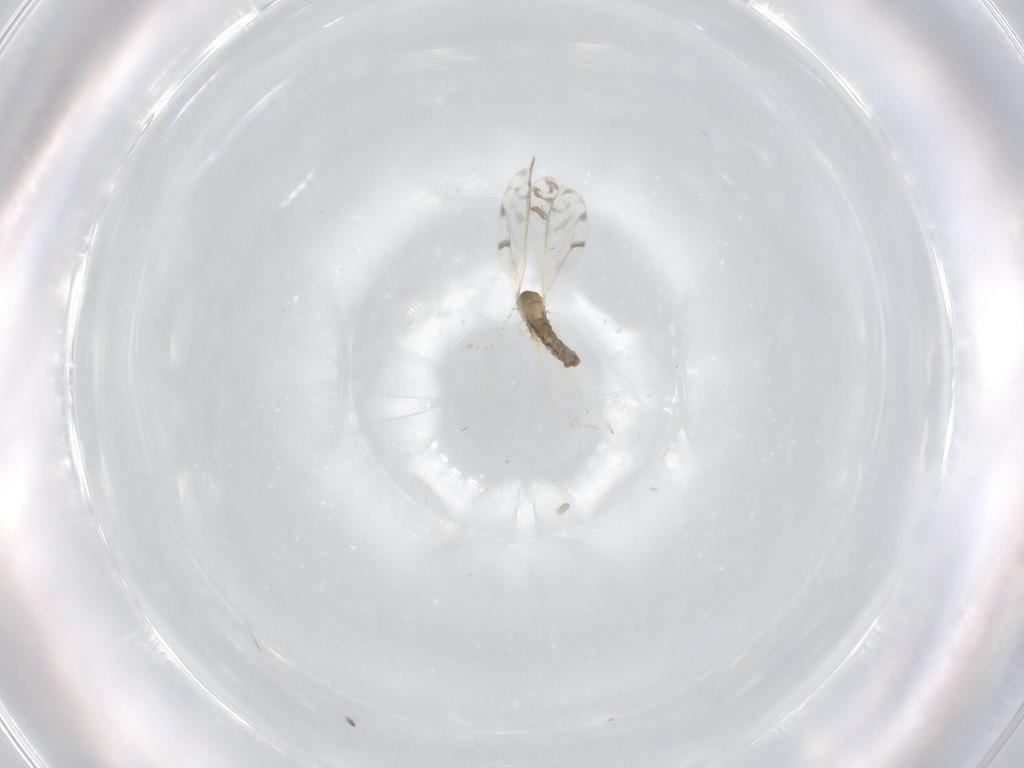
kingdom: Animalia
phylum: Arthropoda
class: Insecta
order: Diptera
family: Cecidomyiidae
